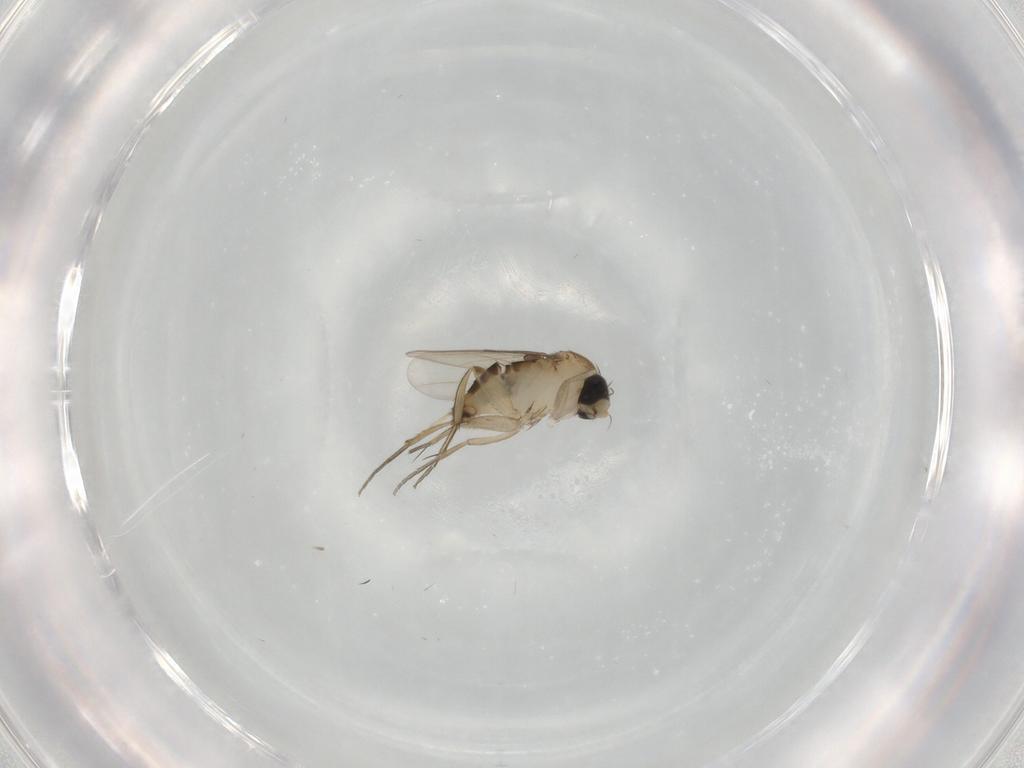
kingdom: Animalia
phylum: Arthropoda
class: Insecta
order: Diptera
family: Phoridae
